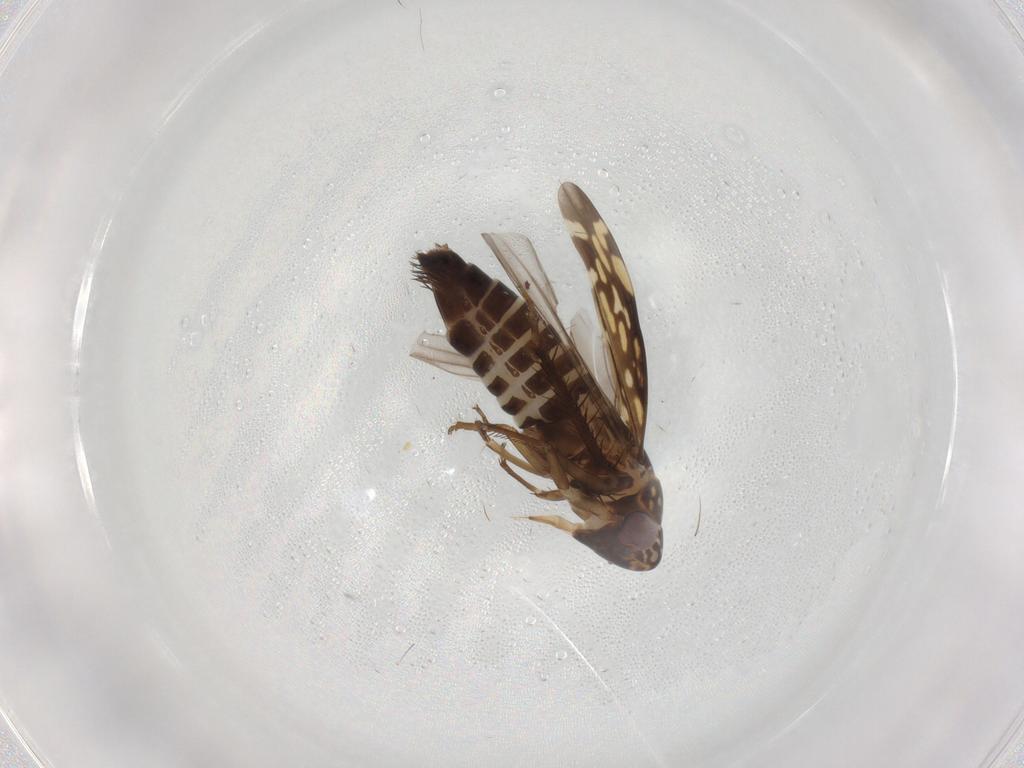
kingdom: Animalia
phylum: Arthropoda
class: Insecta
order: Hemiptera
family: Cicadellidae
